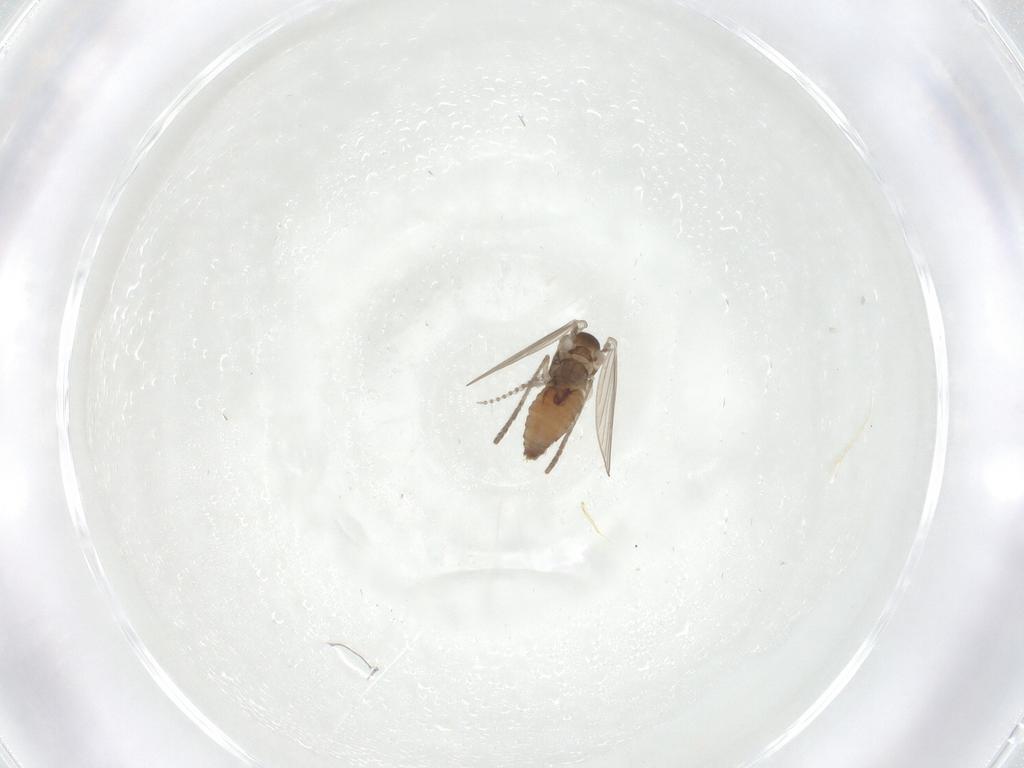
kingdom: Animalia
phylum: Arthropoda
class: Insecta
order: Diptera
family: Psychodidae
